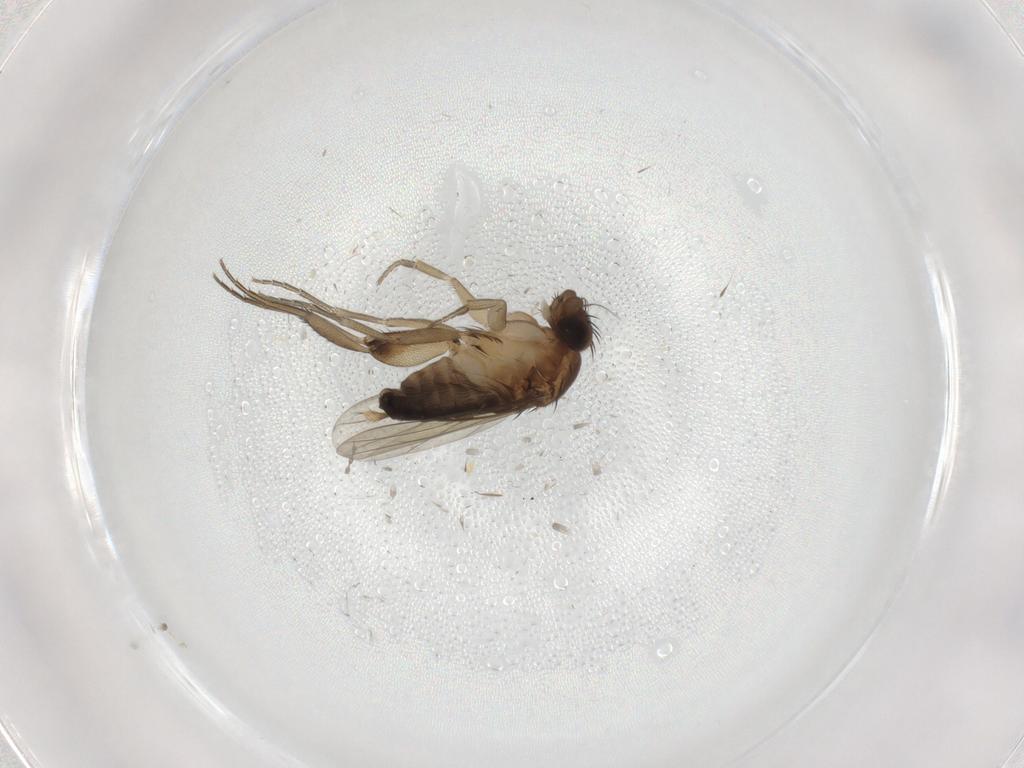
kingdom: Animalia
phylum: Arthropoda
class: Insecta
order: Diptera
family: Phoridae
